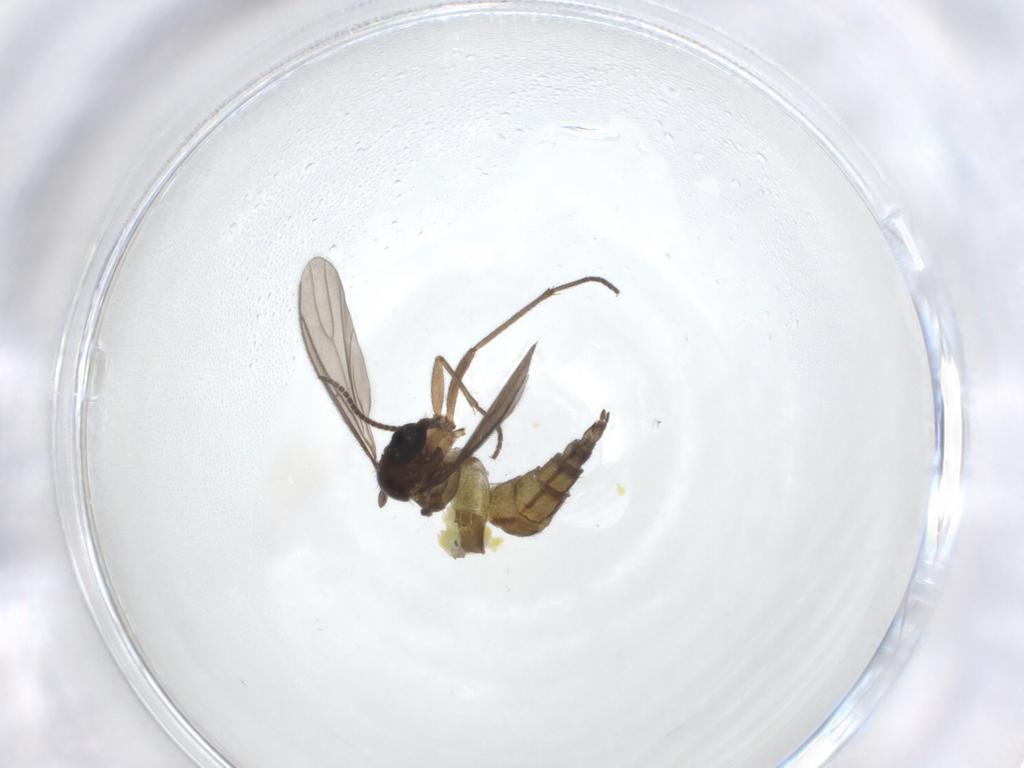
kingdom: Animalia
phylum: Arthropoda
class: Insecta
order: Diptera
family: Sciaridae
